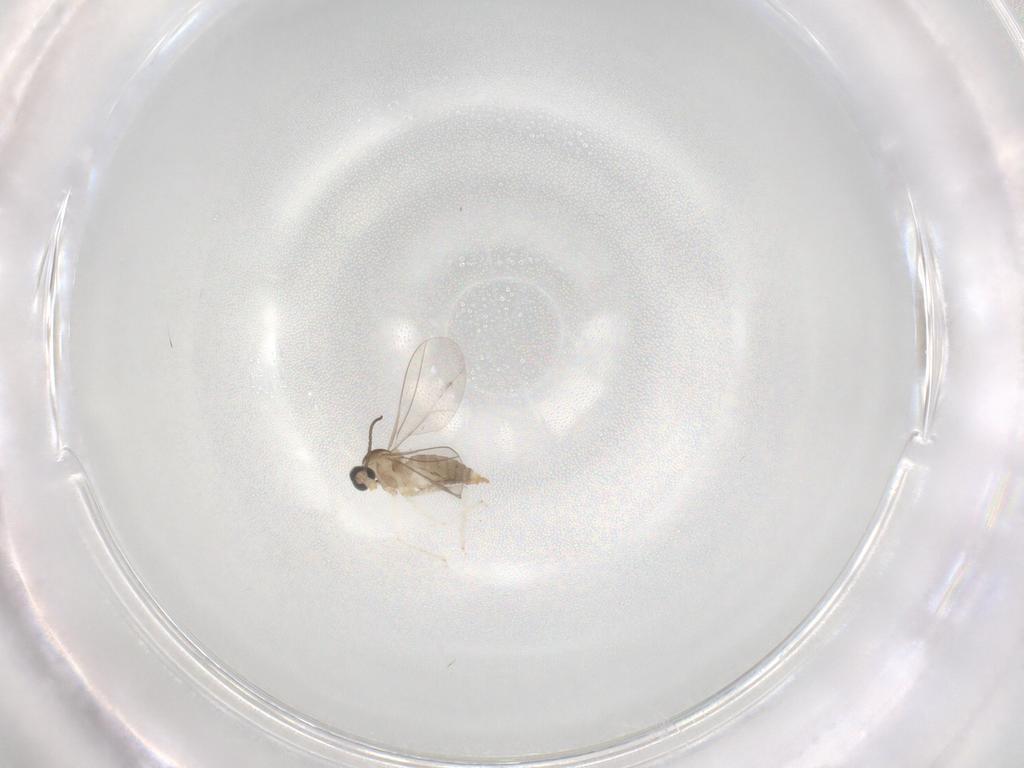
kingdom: Animalia
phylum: Arthropoda
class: Insecta
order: Diptera
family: Cecidomyiidae
